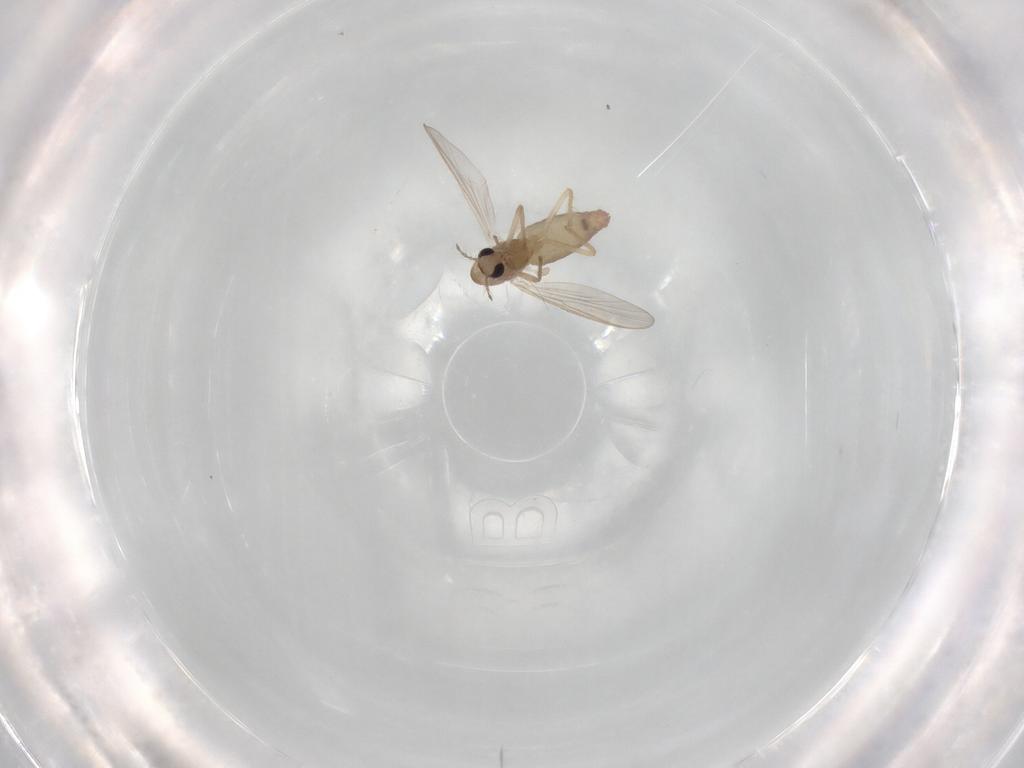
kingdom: Animalia
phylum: Arthropoda
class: Insecta
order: Diptera
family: Chironomidae
